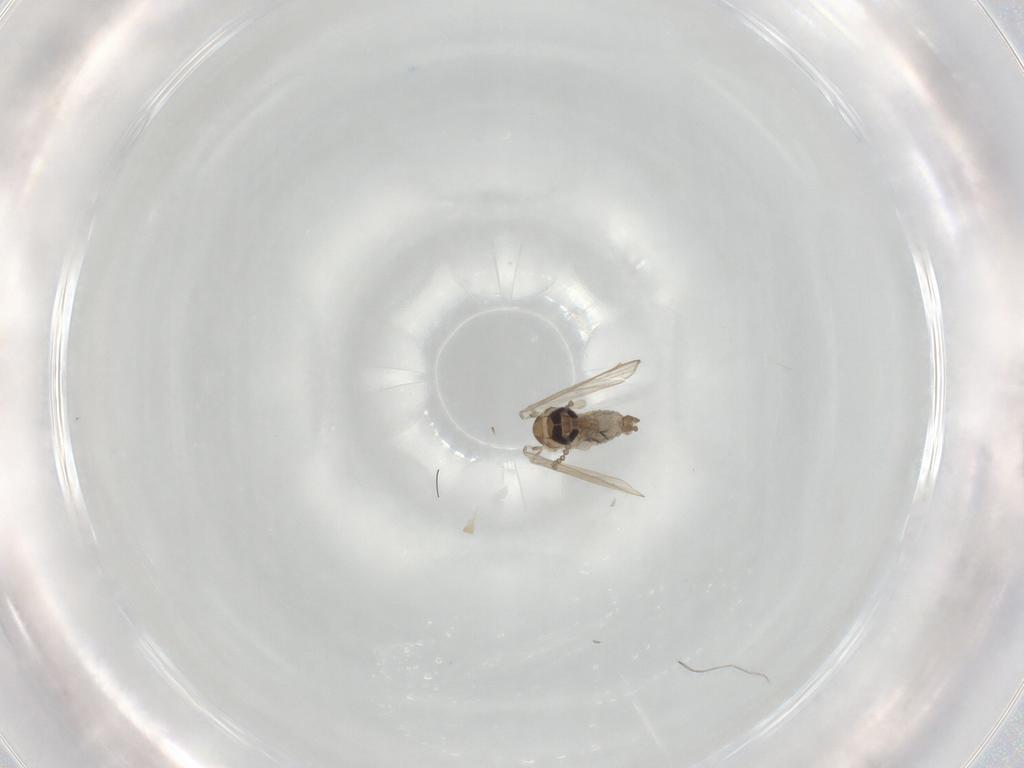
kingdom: Animalia
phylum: Arthropoda
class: Insecta
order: Diptera
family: Psychodidae
